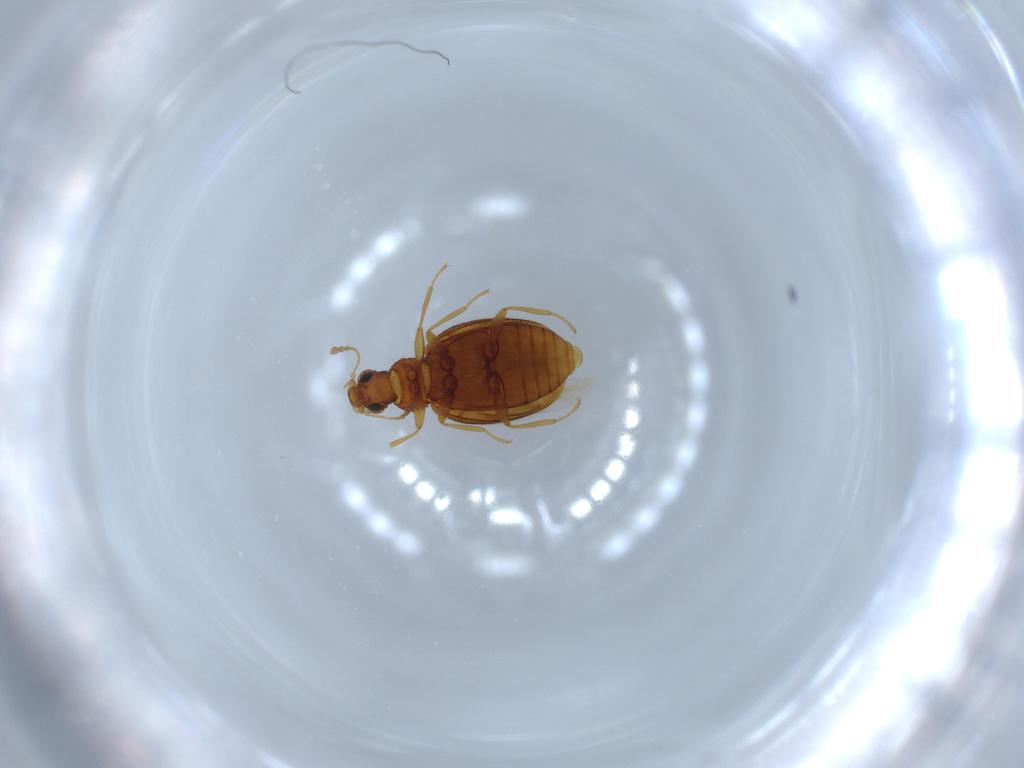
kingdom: Animalia
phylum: Arthropoda
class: Insecta
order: Coleoptera
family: Latridiidae
